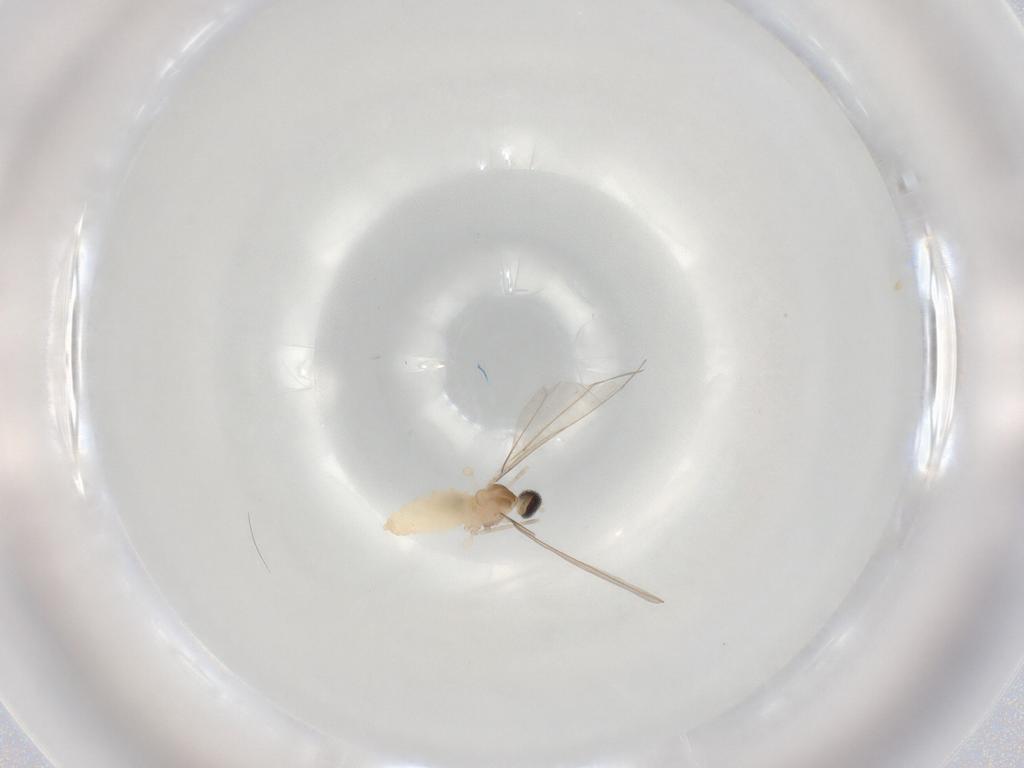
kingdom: Animalia
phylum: Arthropoda
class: Insecta
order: Diptera
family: Cecidomyiidae
